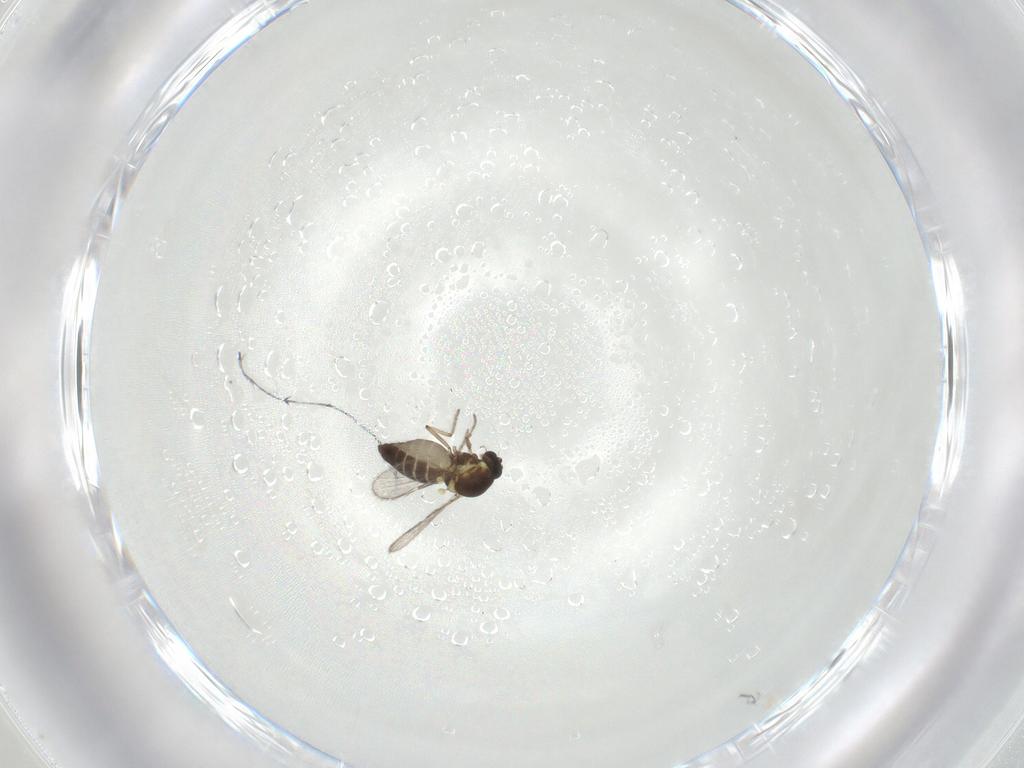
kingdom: Animalia
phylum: Arthropoda
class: Insecta
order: Diptera
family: Ceratopogonidae
